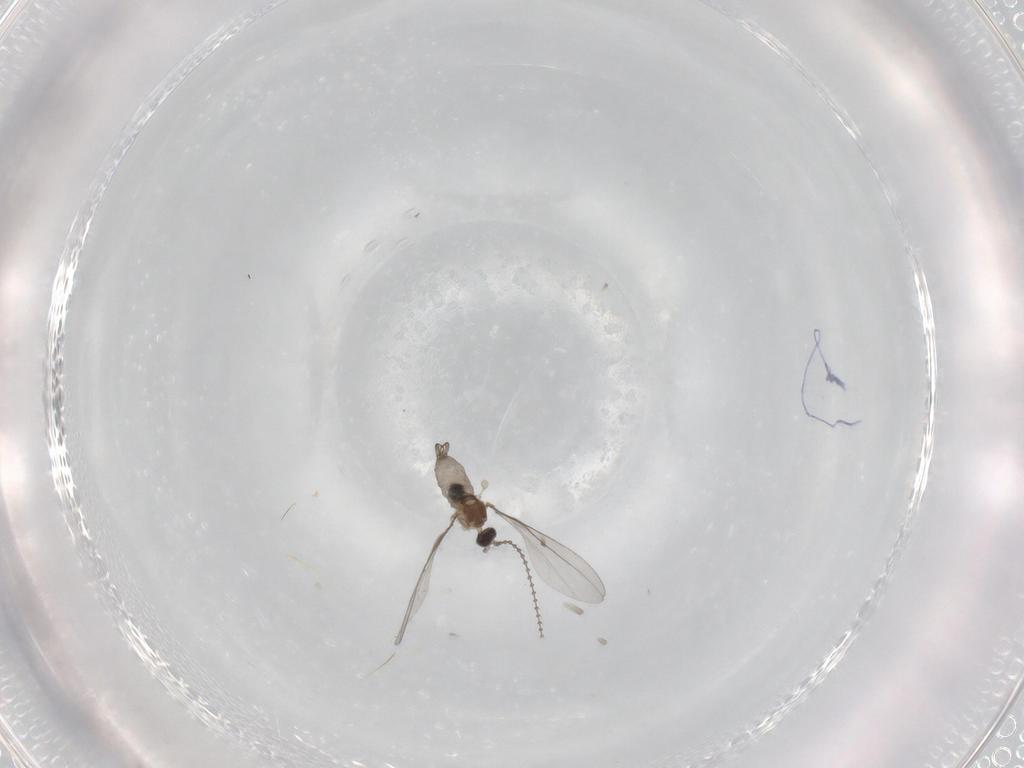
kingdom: Animalia
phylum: Arthropoda
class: Insecta
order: Diptera
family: Cecidomyiidae
